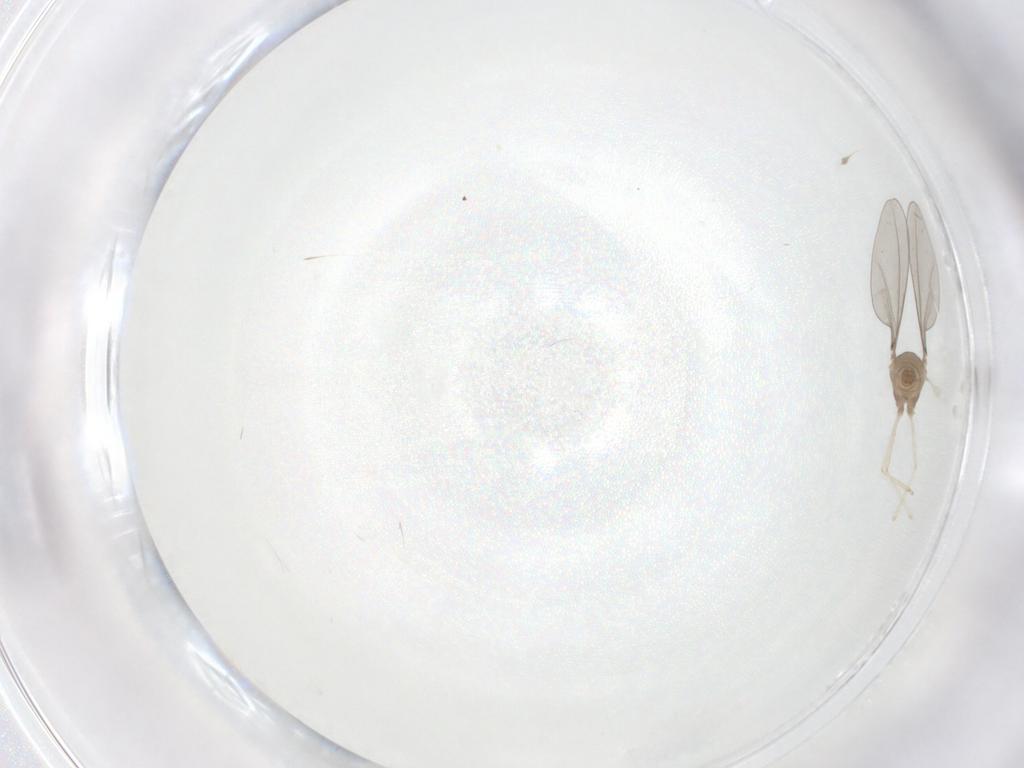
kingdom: Animalia
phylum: Arthropoda
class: Insecta
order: Diptera
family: Cecidomyiidae
